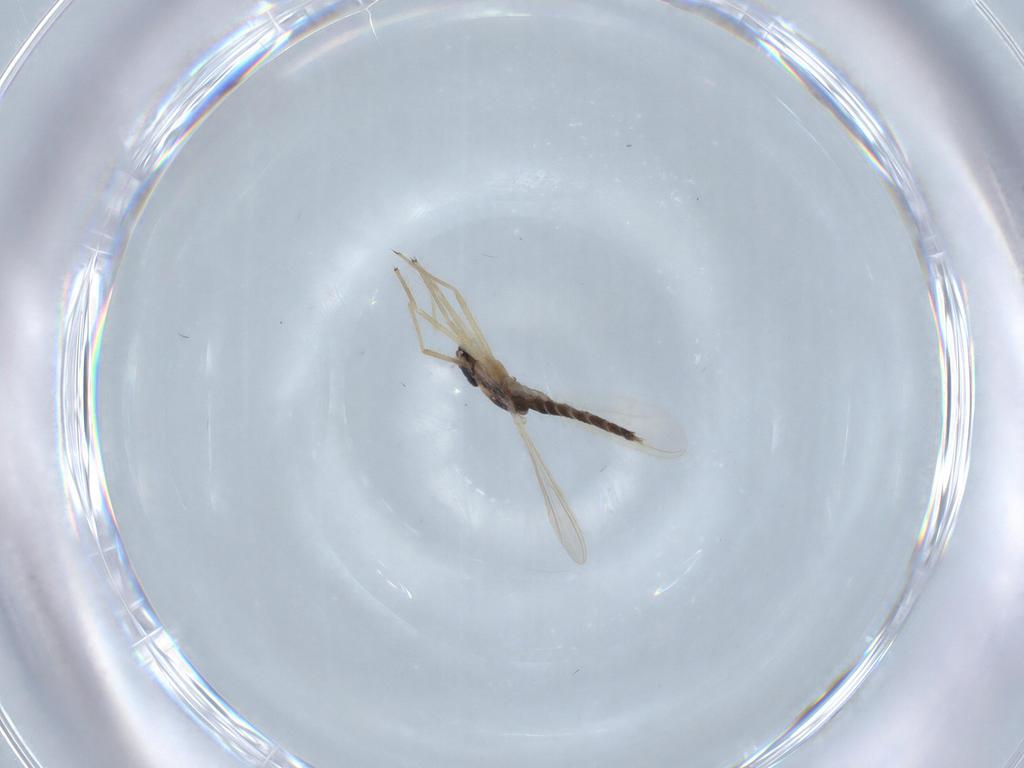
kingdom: Animalia
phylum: Arthropoda
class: Insecta
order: Diptera
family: Chironomidae
